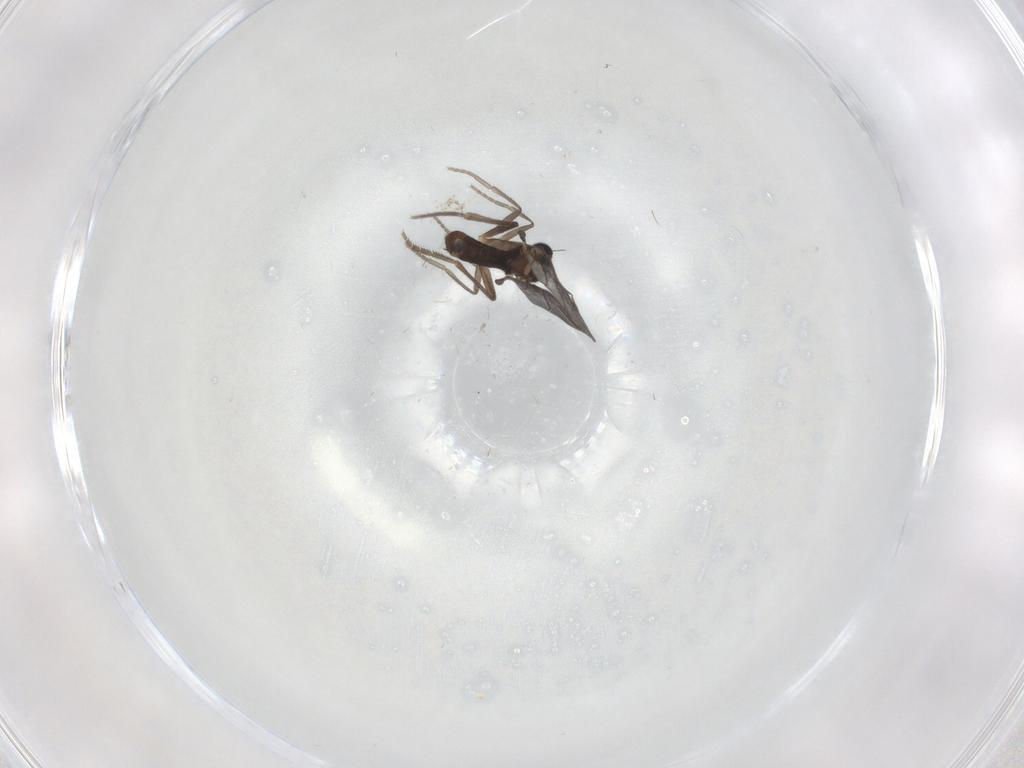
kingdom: Animalia
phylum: Arthropoda
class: Insecta
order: Diptera
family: Phoridae
